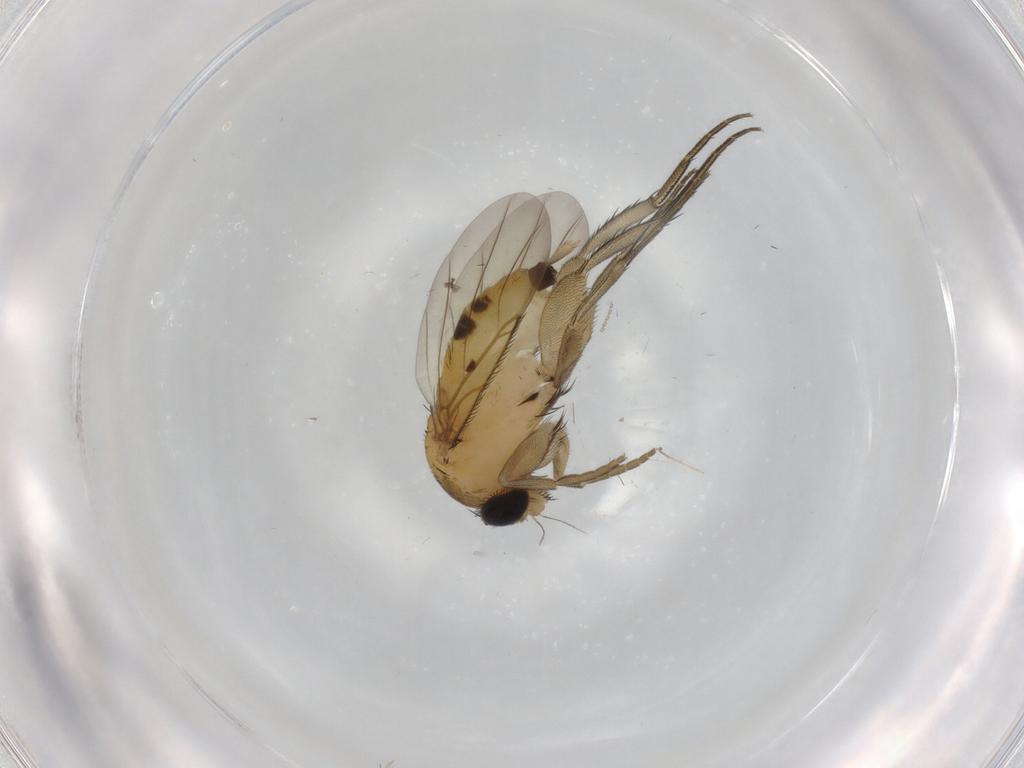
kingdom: Animalia
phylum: Arthropoda
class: Insecta
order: Diptera
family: Phoridae
